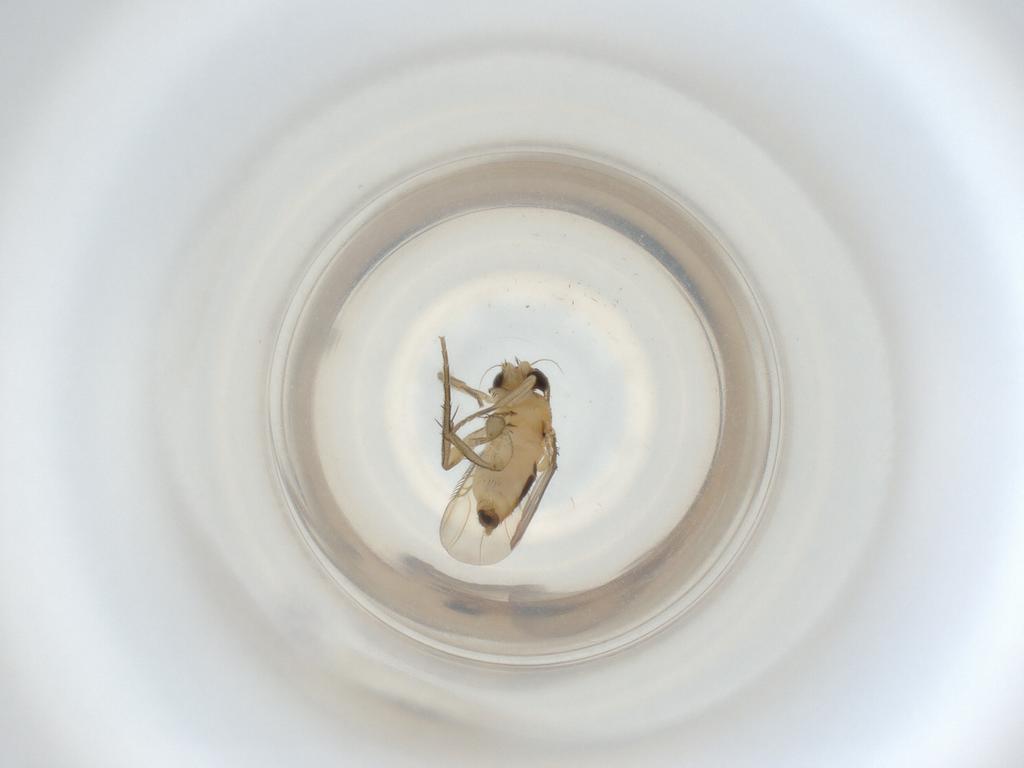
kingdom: Animalia
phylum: Arthropoda
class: Insecta
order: Diptera
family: Phoridae
